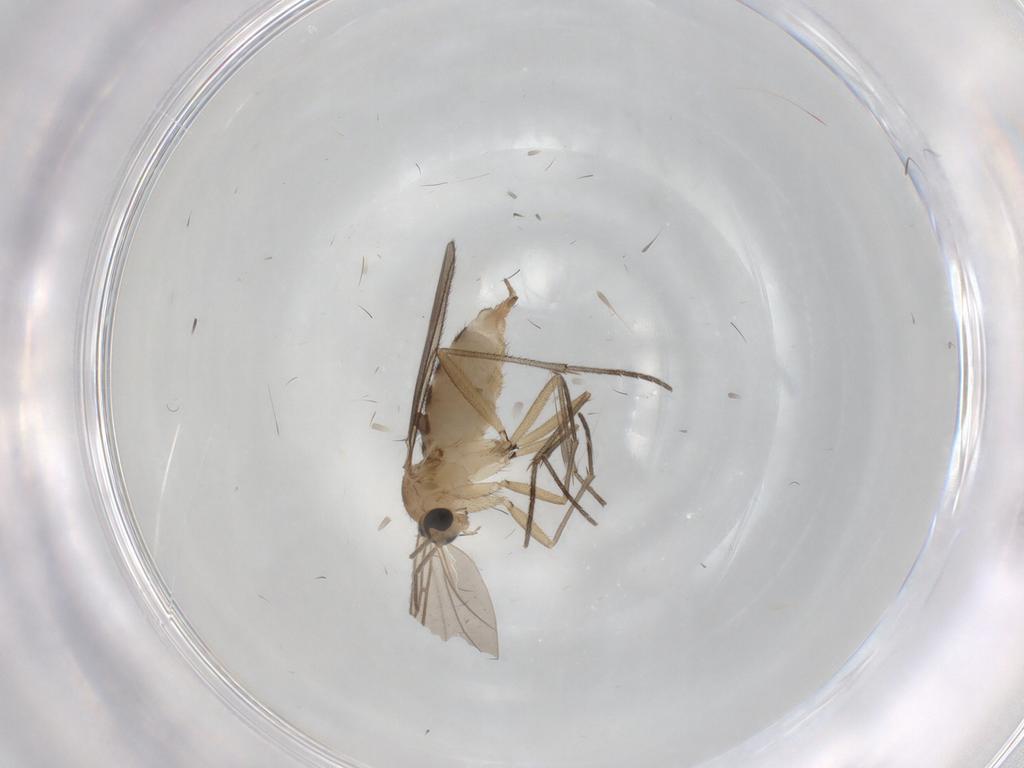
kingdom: Animalia
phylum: Arthropoda
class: Insecta
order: Diptera
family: Sciaridae
